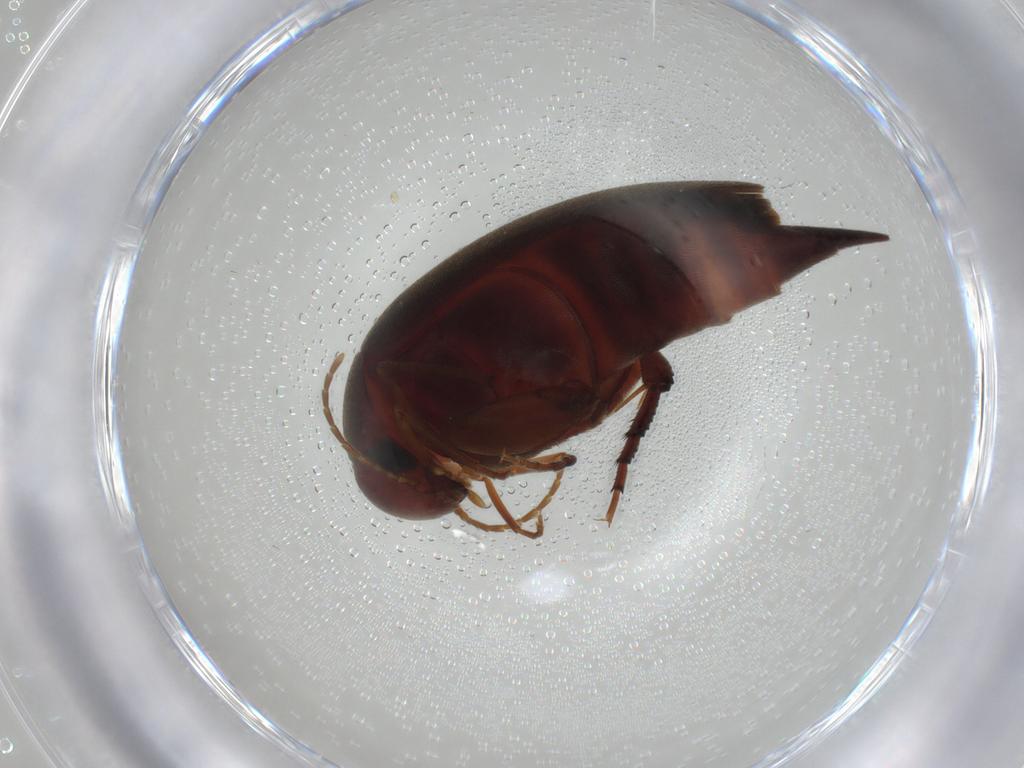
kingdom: Animalia
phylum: Arthropoda
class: Insecta
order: Coleoptera
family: Mordellidae
